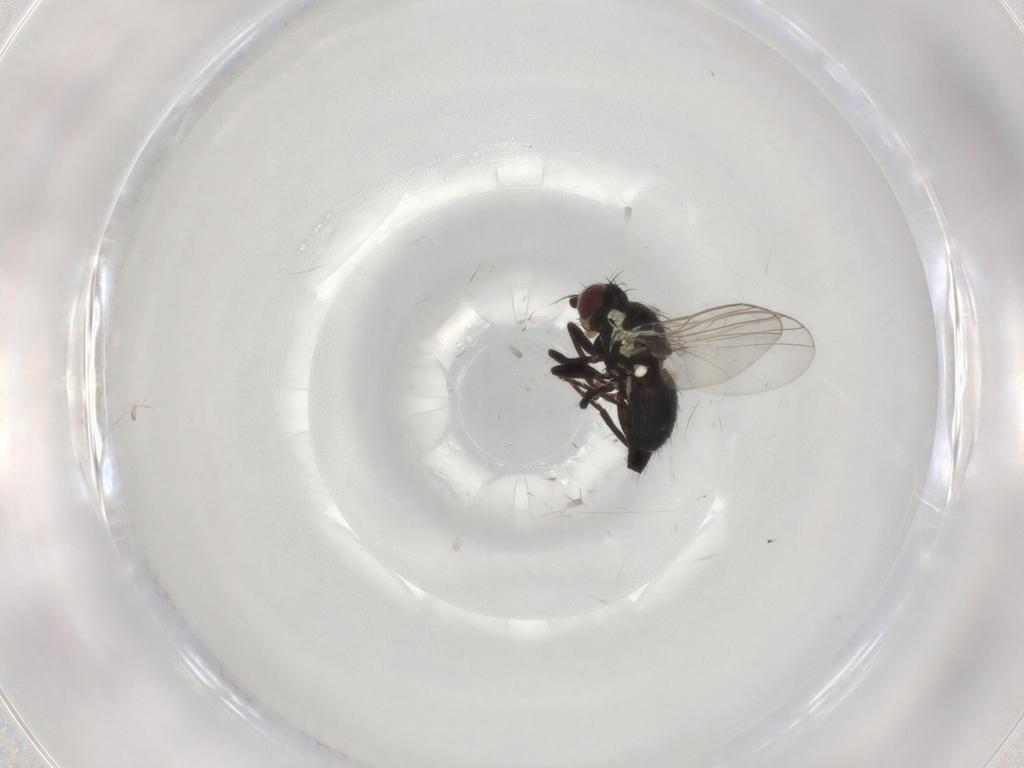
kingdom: Animalia
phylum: Arthropoda
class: Insecta
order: Diptera
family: Agromyzidae
